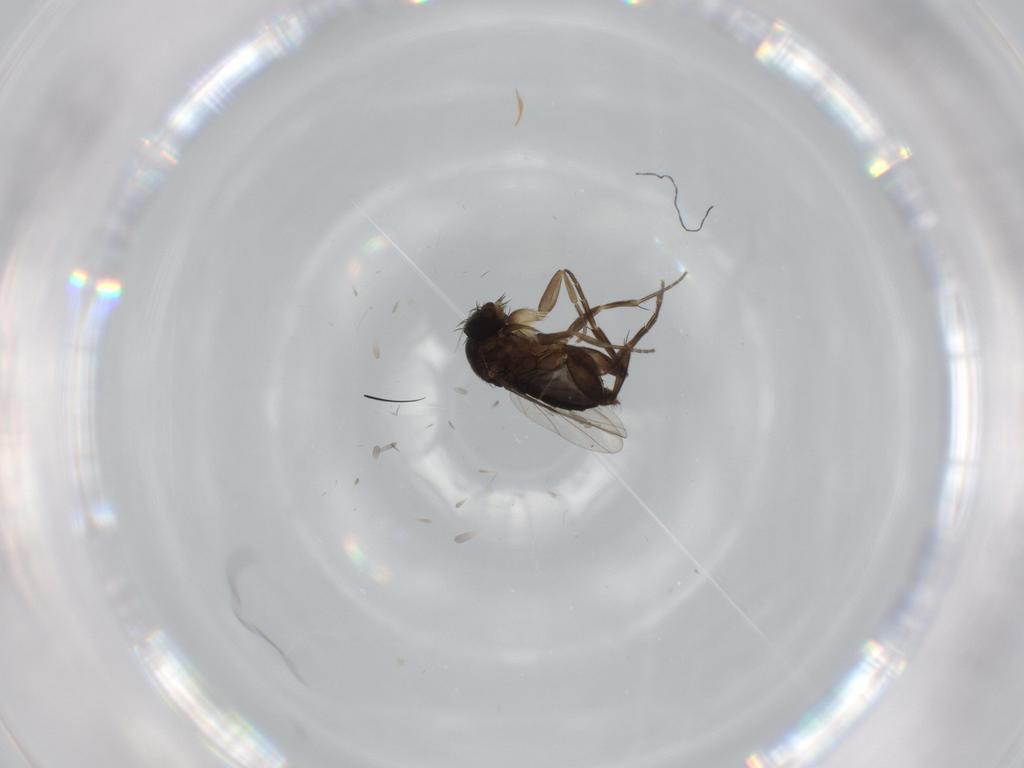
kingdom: Animalia
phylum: Arthropoda
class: Insecta
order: Diptera
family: Phoridae
